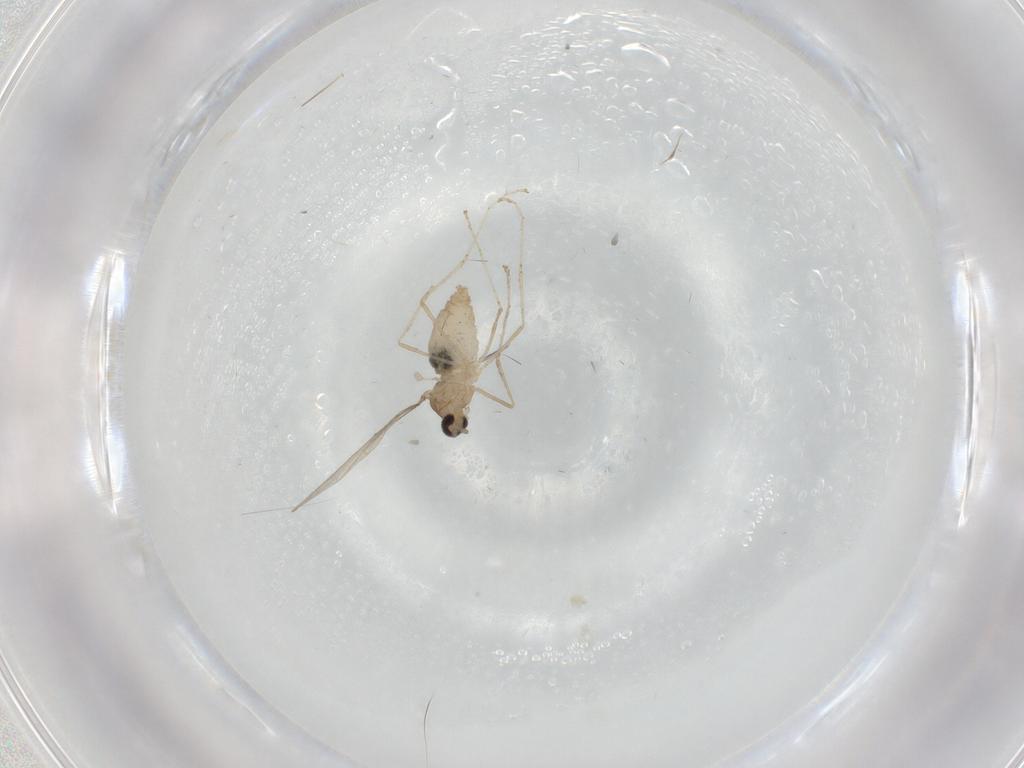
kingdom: Animalia
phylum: Arthropoda
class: Insecta
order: Diptera
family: Cecidomyiidae
